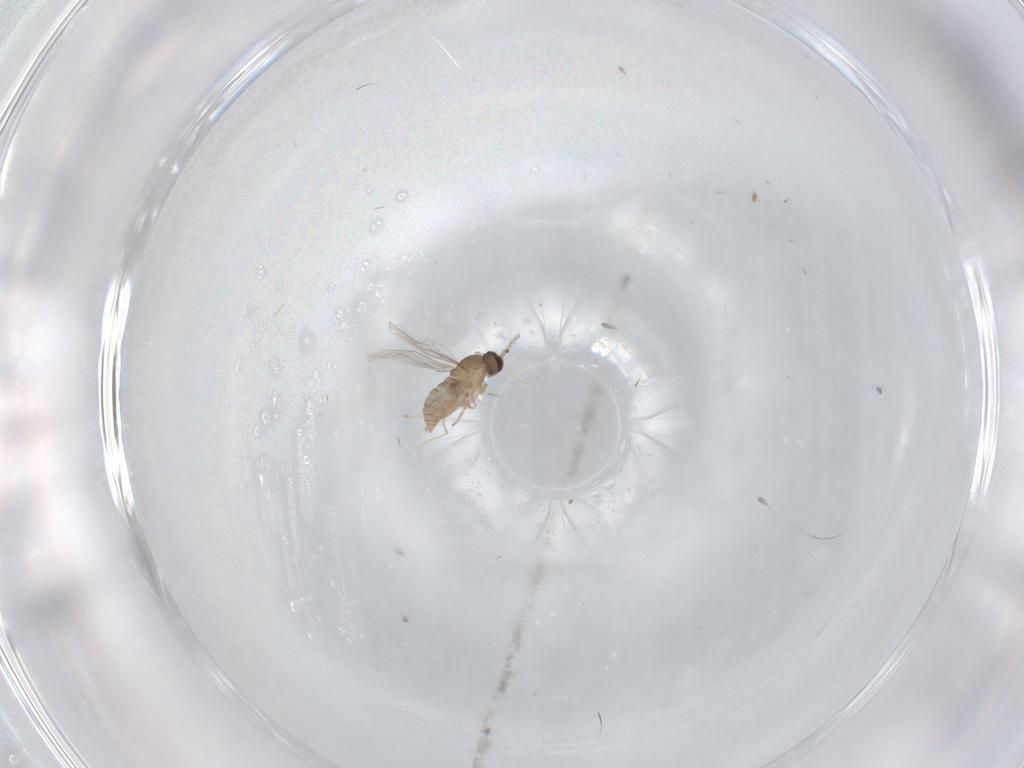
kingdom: Animalia
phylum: Arthropoda
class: Insecta
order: Diptera
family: Cecidomyiidae
